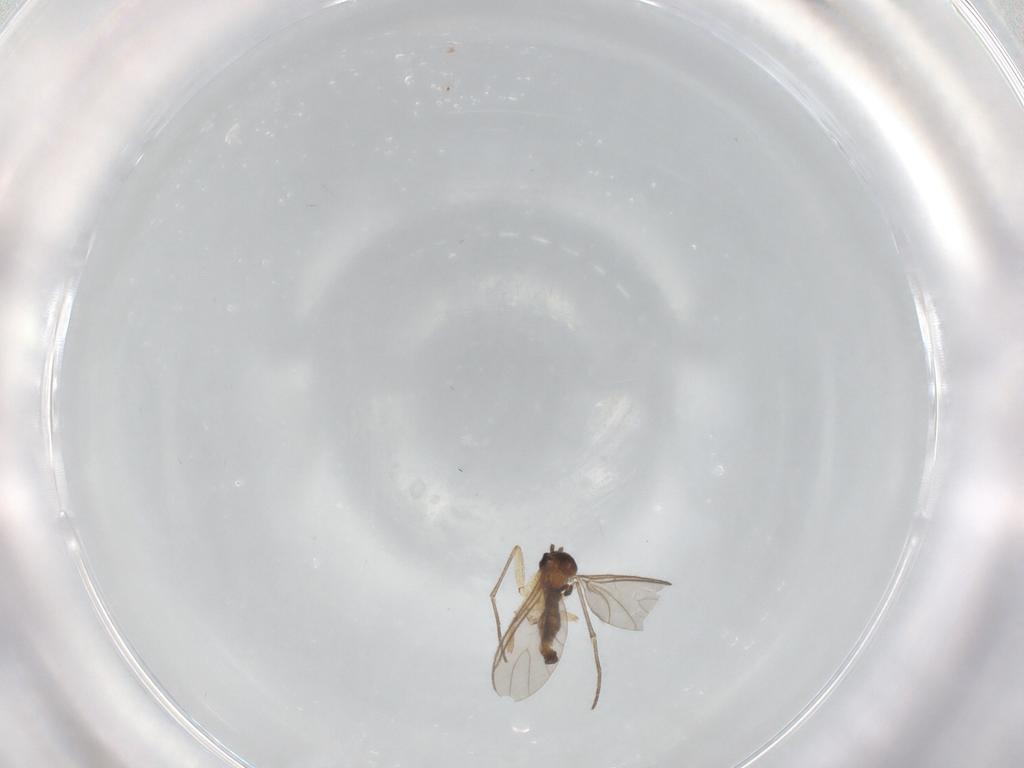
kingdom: Animalia
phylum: Arthropoda
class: Insecta
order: Diptera
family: Sciaridae
